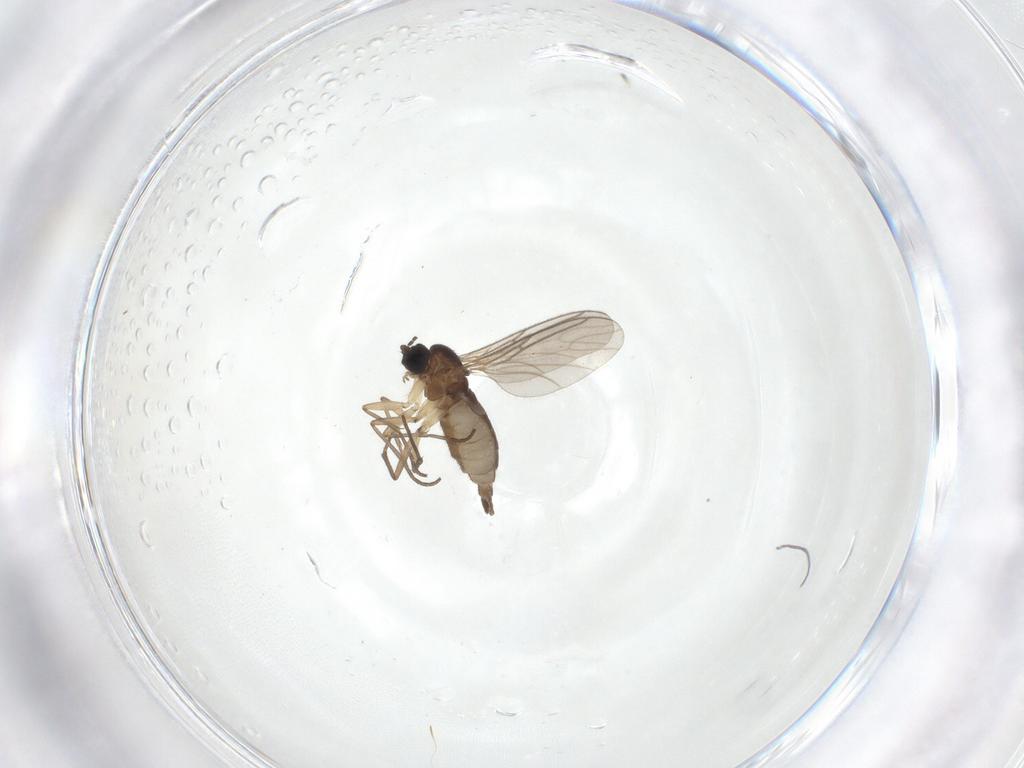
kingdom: Animalia
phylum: Arthropoda
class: Insecta
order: Diptera
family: Sciaridae
